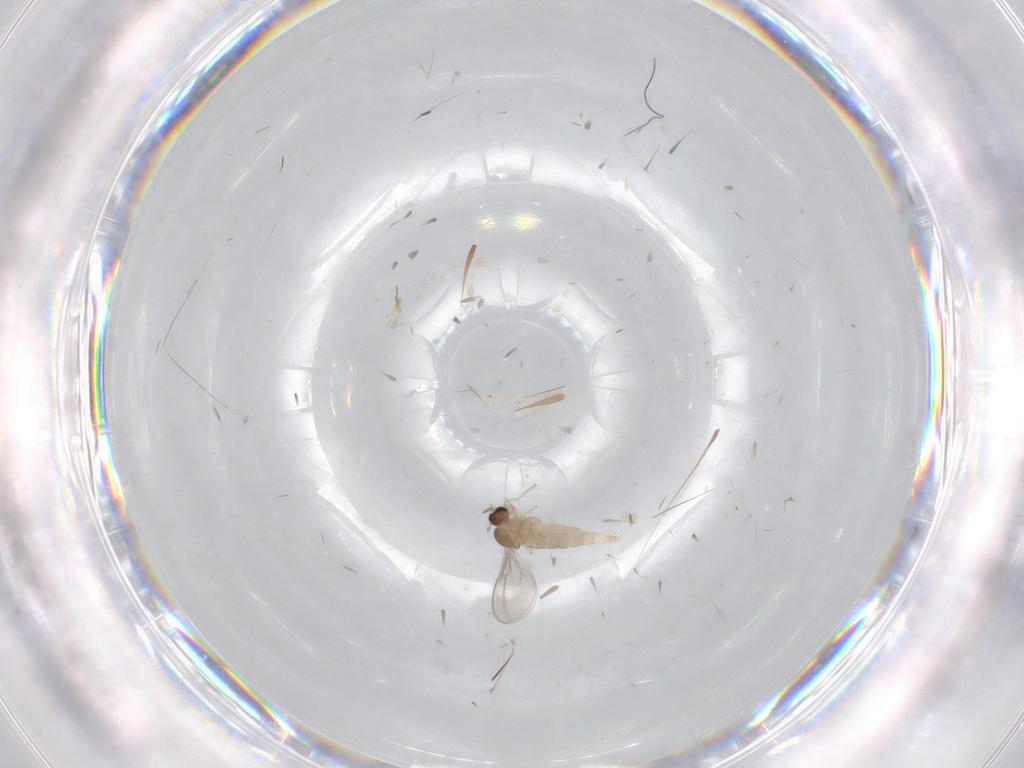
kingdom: Animalia
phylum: Arthropoda
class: Insecta
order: Diptera
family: Cecidomyiidae
